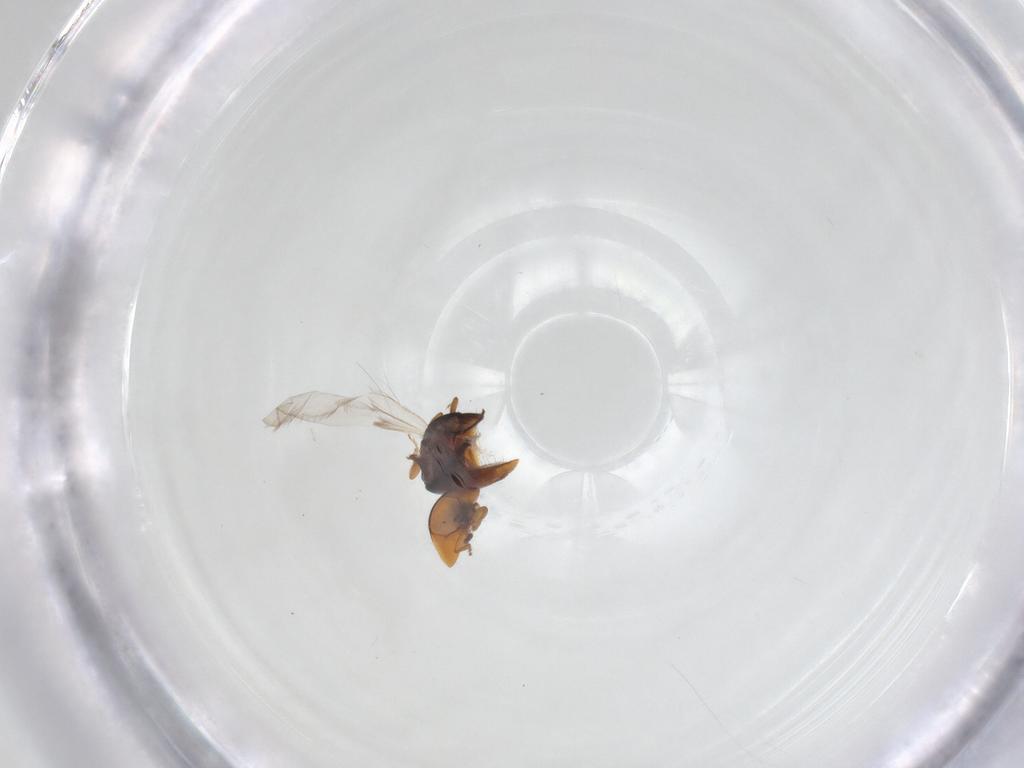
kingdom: Animalia
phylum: Arthropoda
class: Insecta
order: Coleoptera
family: Corylophidae
